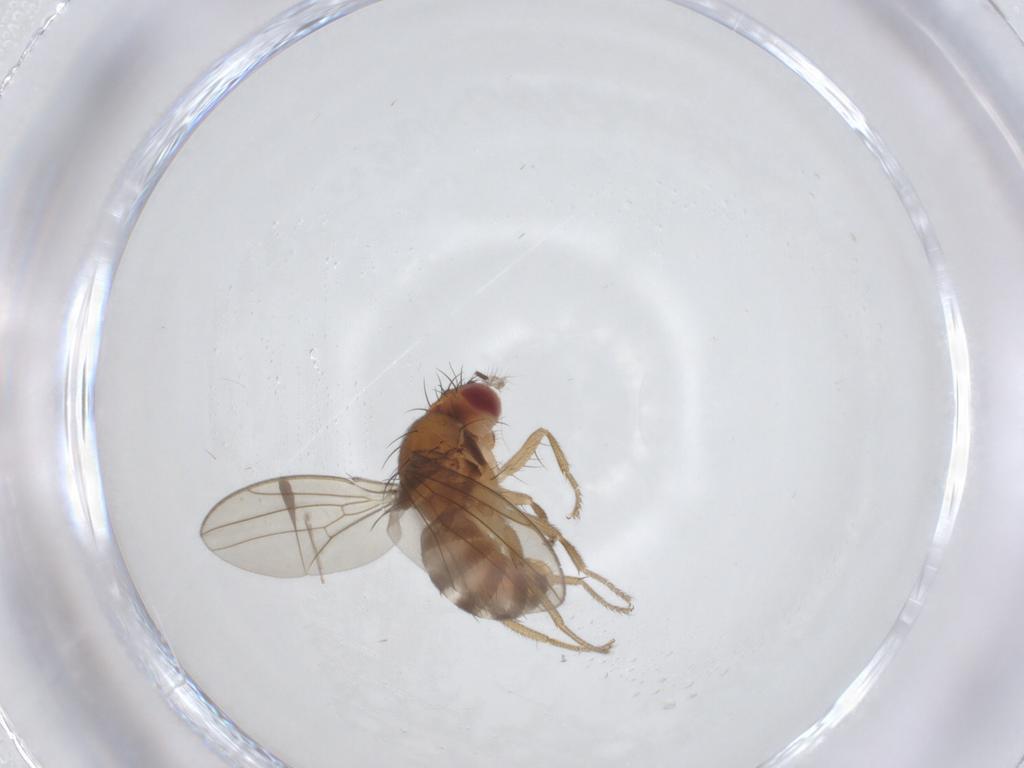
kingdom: Animalia
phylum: Arthropoda
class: Insecta
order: Diptera
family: Drosophilidae
